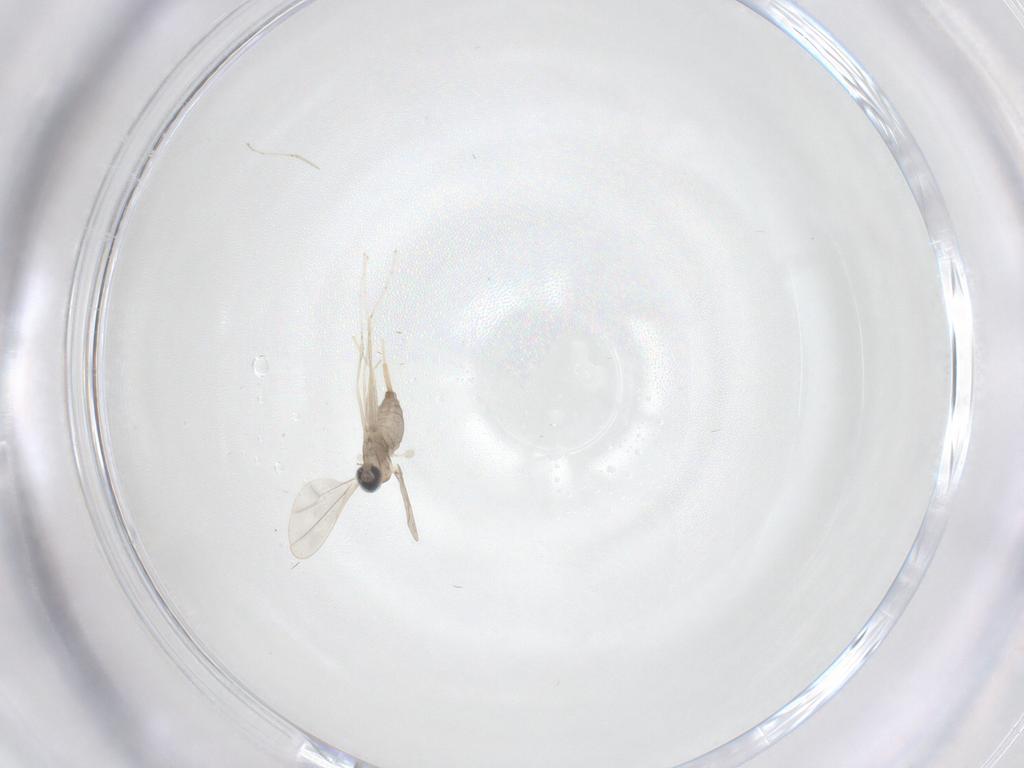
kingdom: Animalia
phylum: Arthropoda
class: Insecta
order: Diptera
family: Cecidomyiidae
